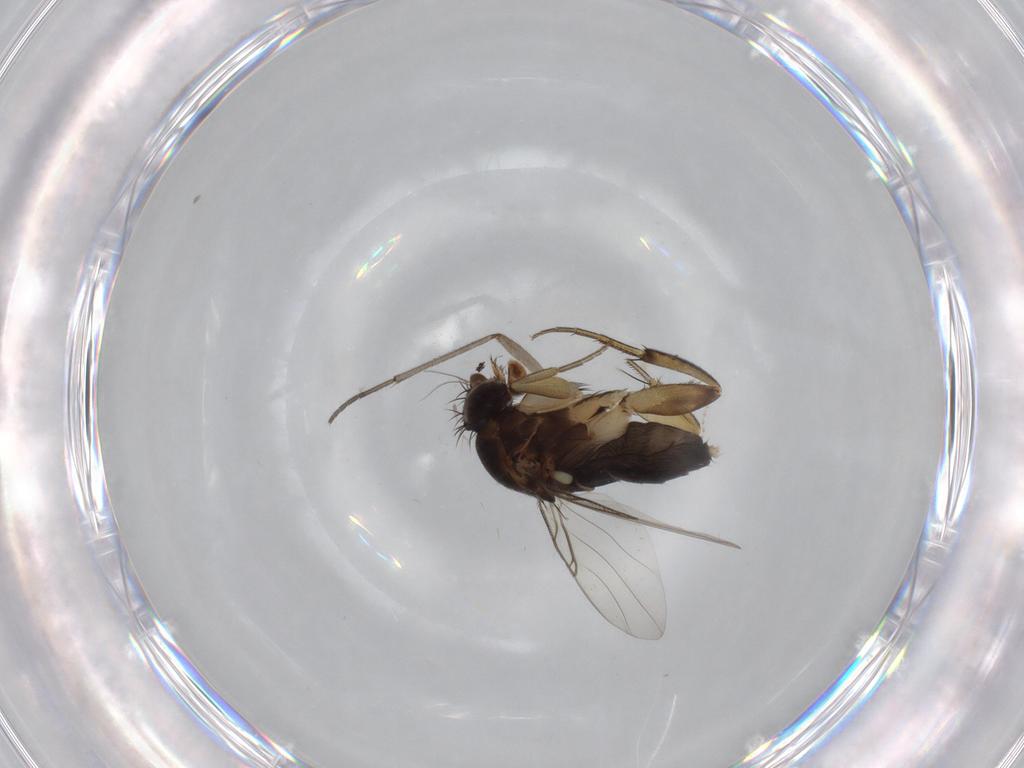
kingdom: Animalia
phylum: Arthropoda
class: Insecta
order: Diptera
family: Phoridae
